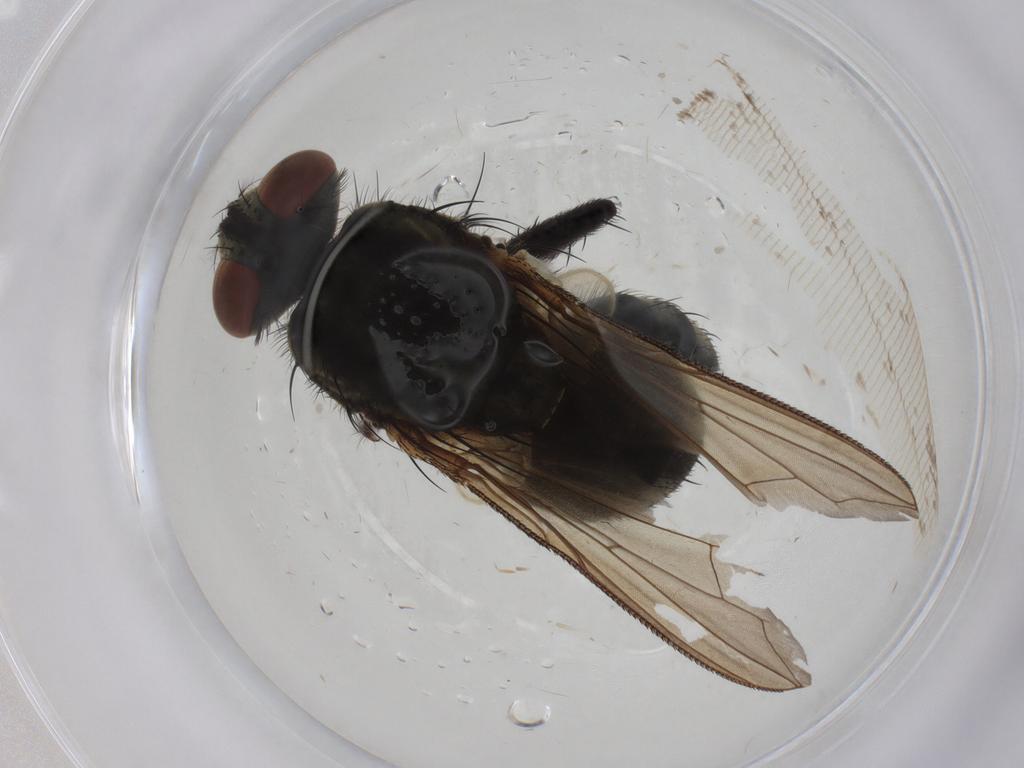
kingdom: Animalia
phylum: Arthropoda
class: Insecta
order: Diptera
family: Sarcophagidae
